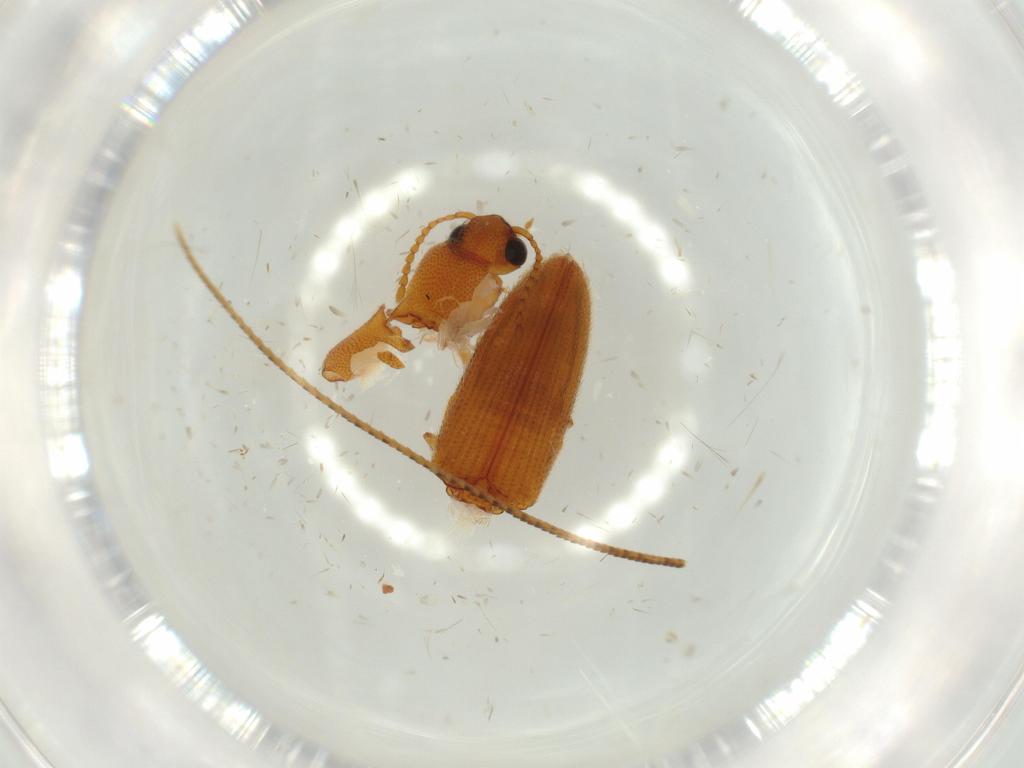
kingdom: Animalia
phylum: Arthropoda
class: Insecta
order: Coleoptera
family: Elateridae
